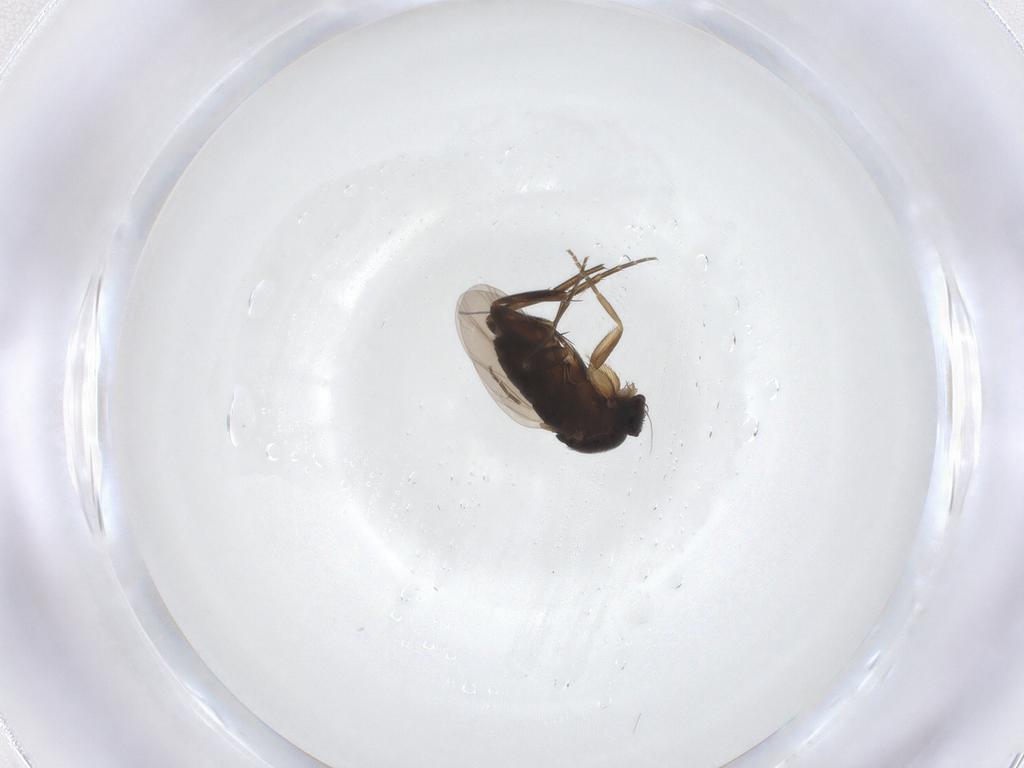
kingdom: Animalia
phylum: Arthropoda
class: Insecta
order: Diptera
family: Phoridae
